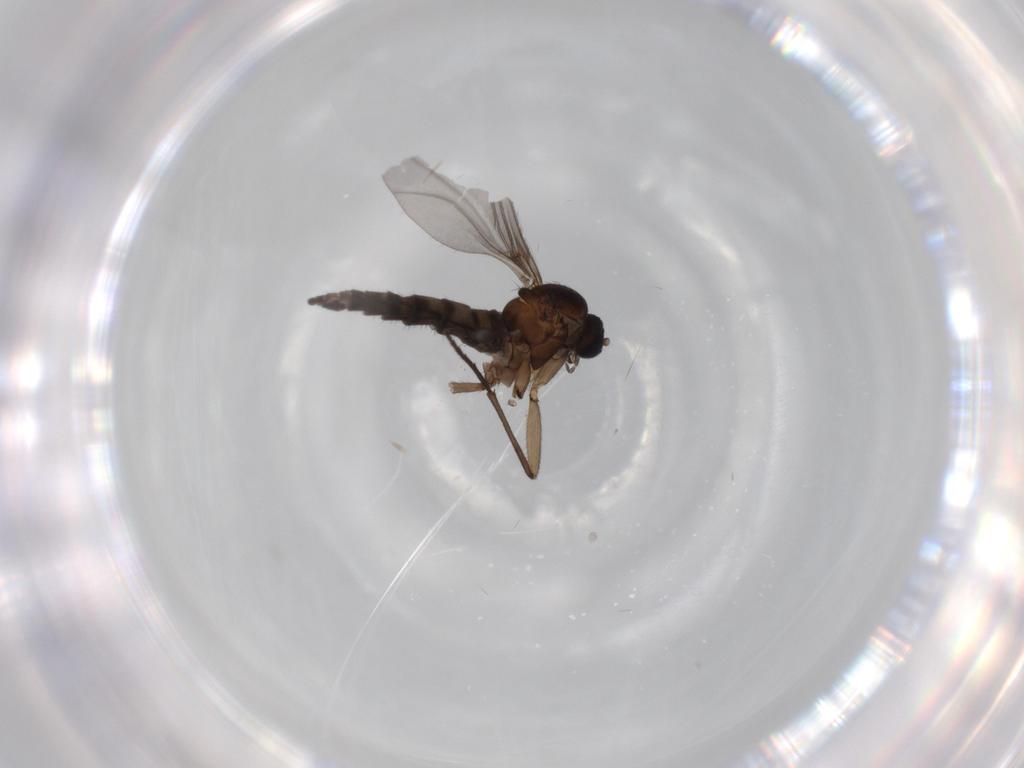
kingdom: Animalia
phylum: Arthropoda
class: Insecta
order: Diptera
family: Sciaridae
